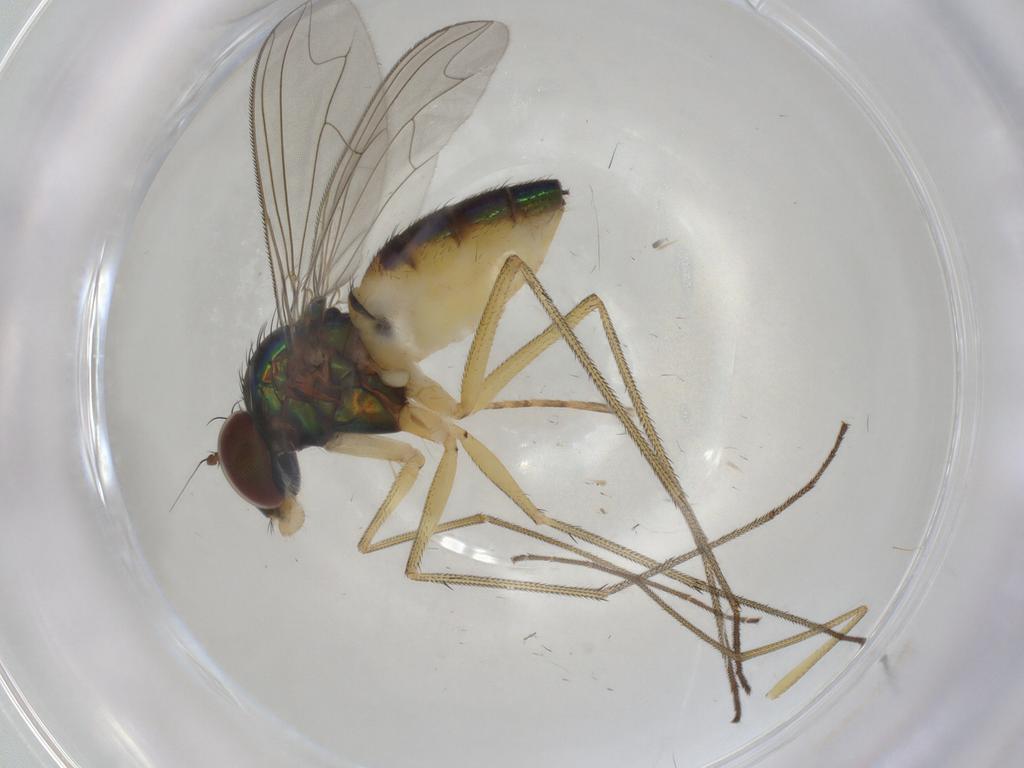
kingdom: Animalia
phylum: Arthropoda
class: Insecta
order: Diptera
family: Dolichopodidae
